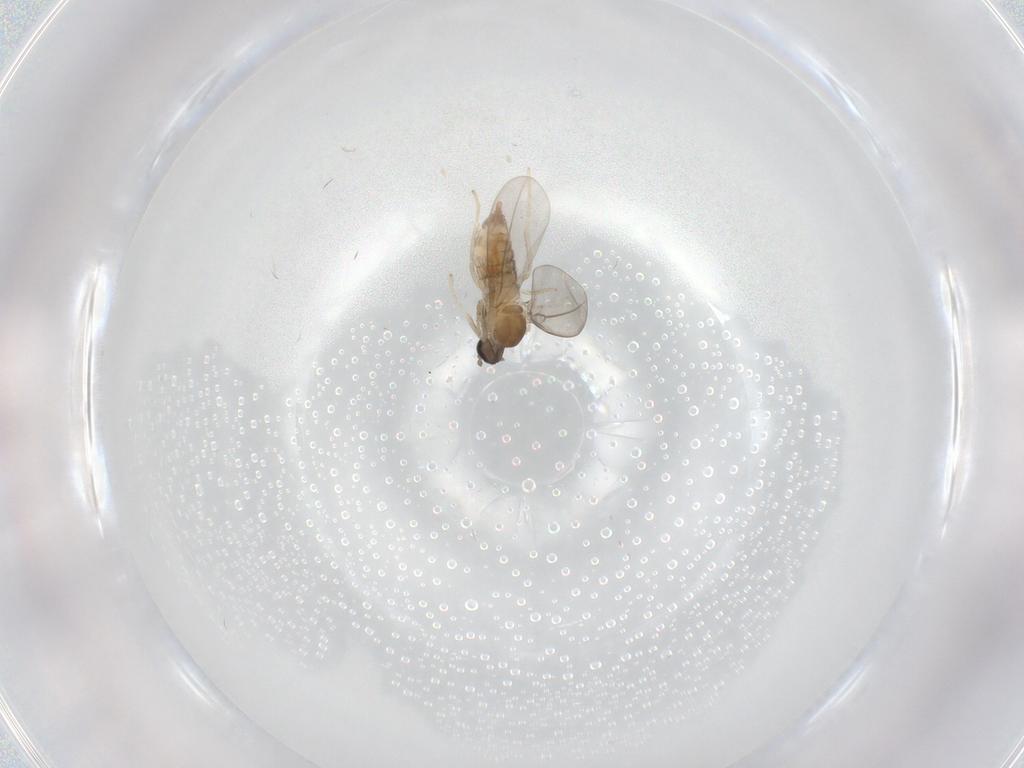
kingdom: Animalia
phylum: Arthropoda
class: Insecta
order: Diptera
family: Cecidomyiidae
